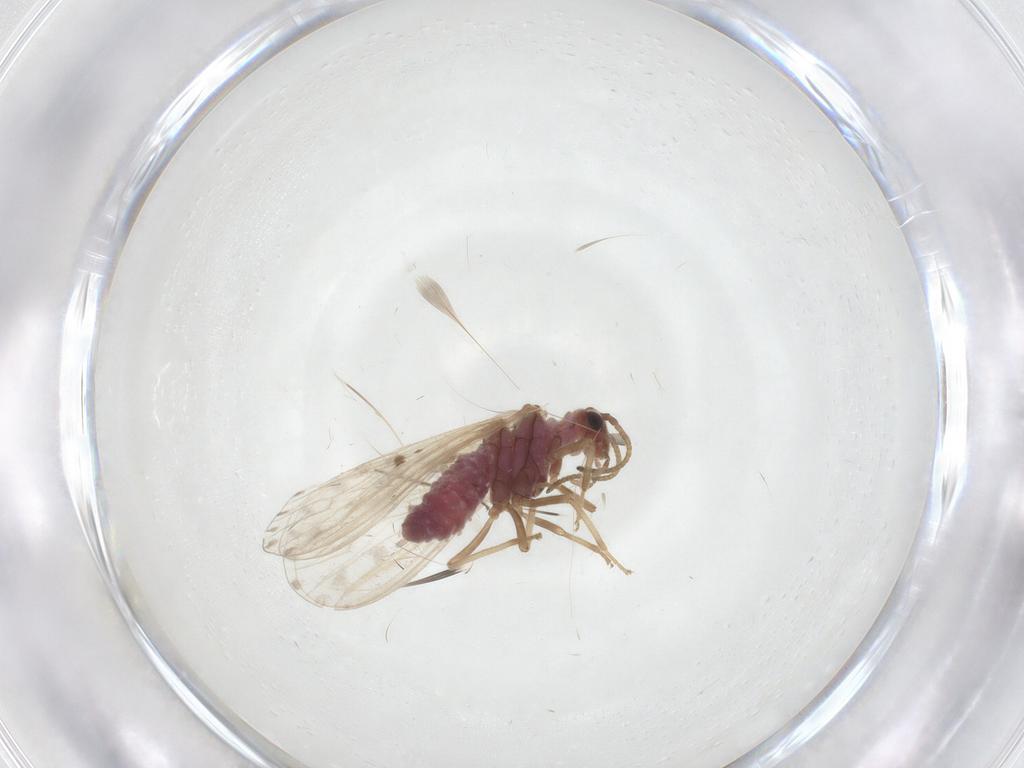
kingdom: Animalia
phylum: Arthropoda
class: Insecta
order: Neuroptera
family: Coniopterygidae
